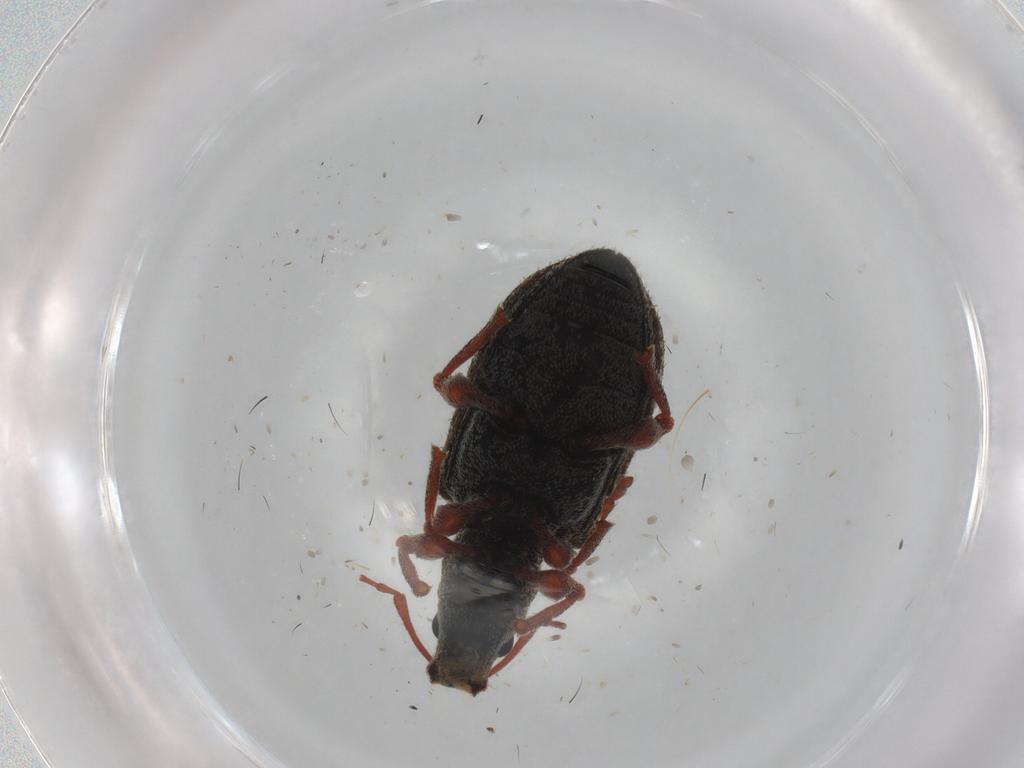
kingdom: Animalia
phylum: Arthropoda
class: Insecta
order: Coleoptera
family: Curculionidae
